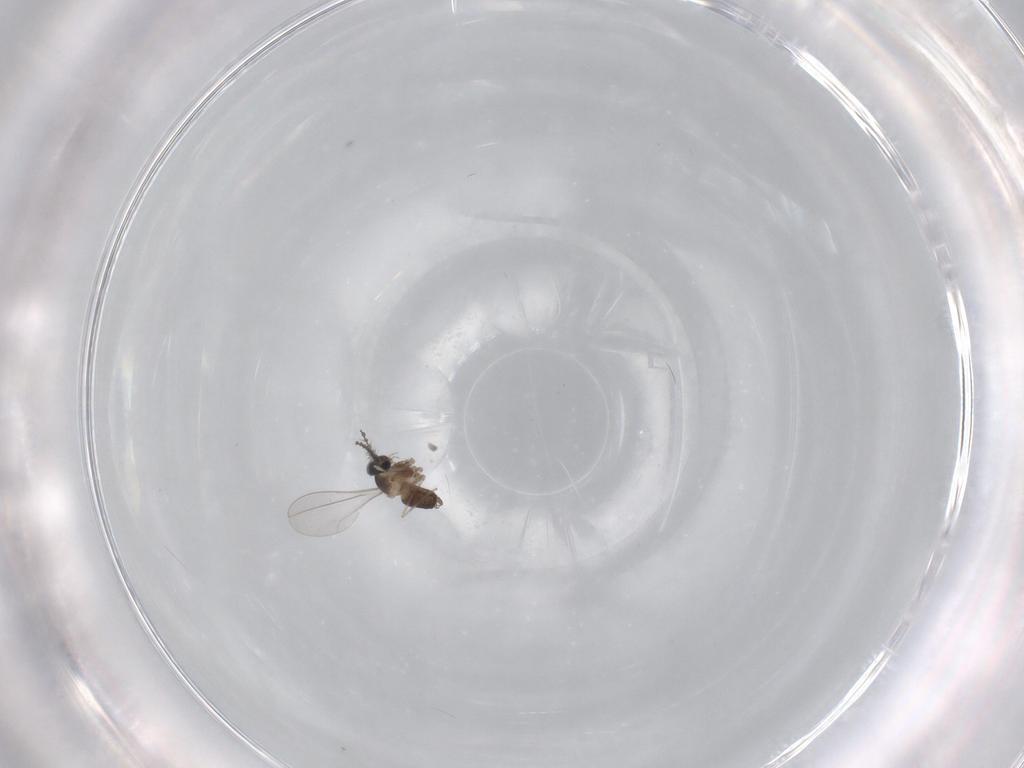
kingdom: Animalia
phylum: Arthropoda
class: Insecta
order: Diptera
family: Cecidomyiidae
